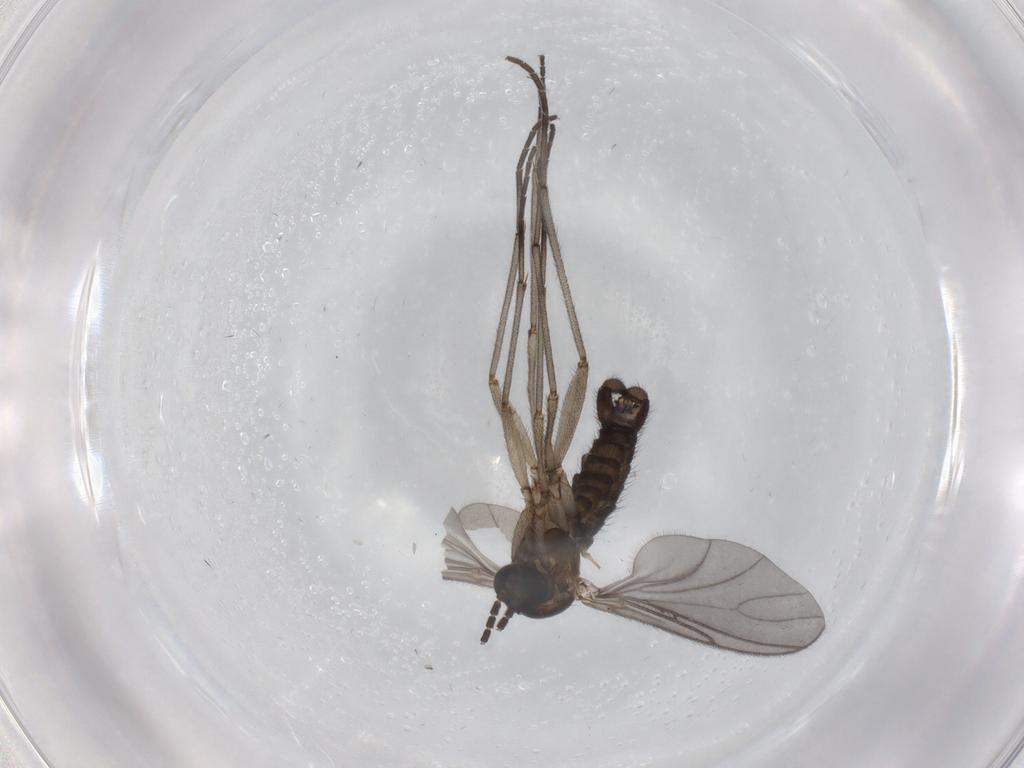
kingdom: Animalia
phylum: Arthropoda
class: Insecta
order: Diptera
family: Sciaridae
